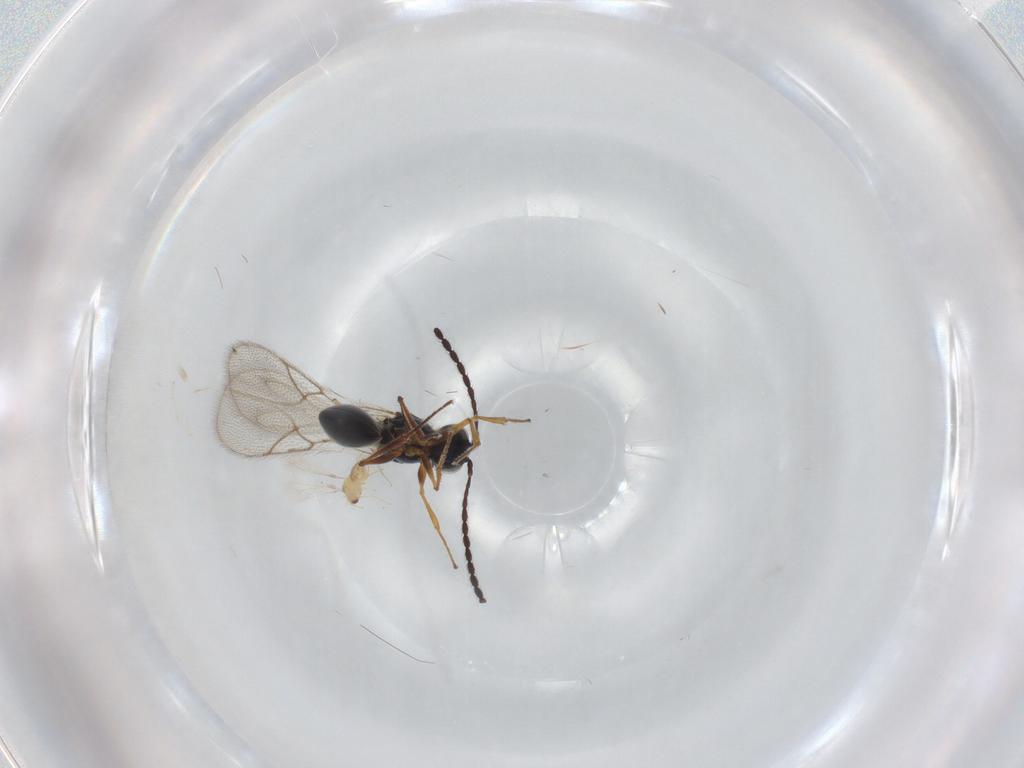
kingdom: Animalia
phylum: Arthropoda
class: Insecta
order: Hymenoptera
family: Figitidae
